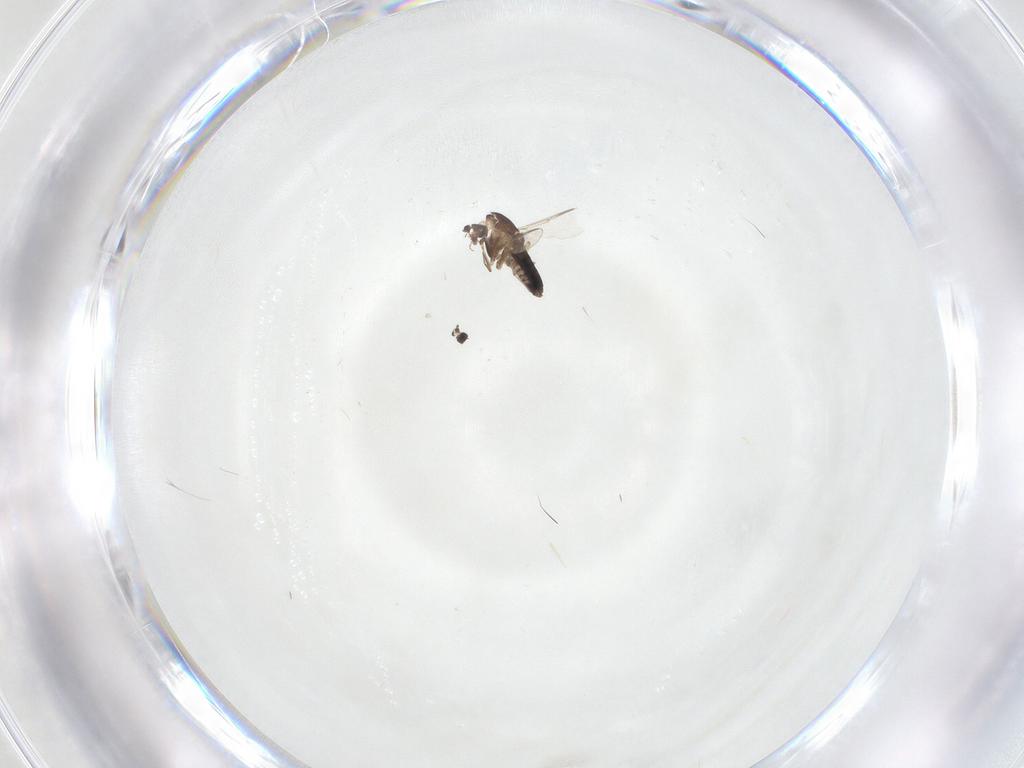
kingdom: Animalia
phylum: Arthropoda
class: Insecta
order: Diptera
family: Chironomidae
